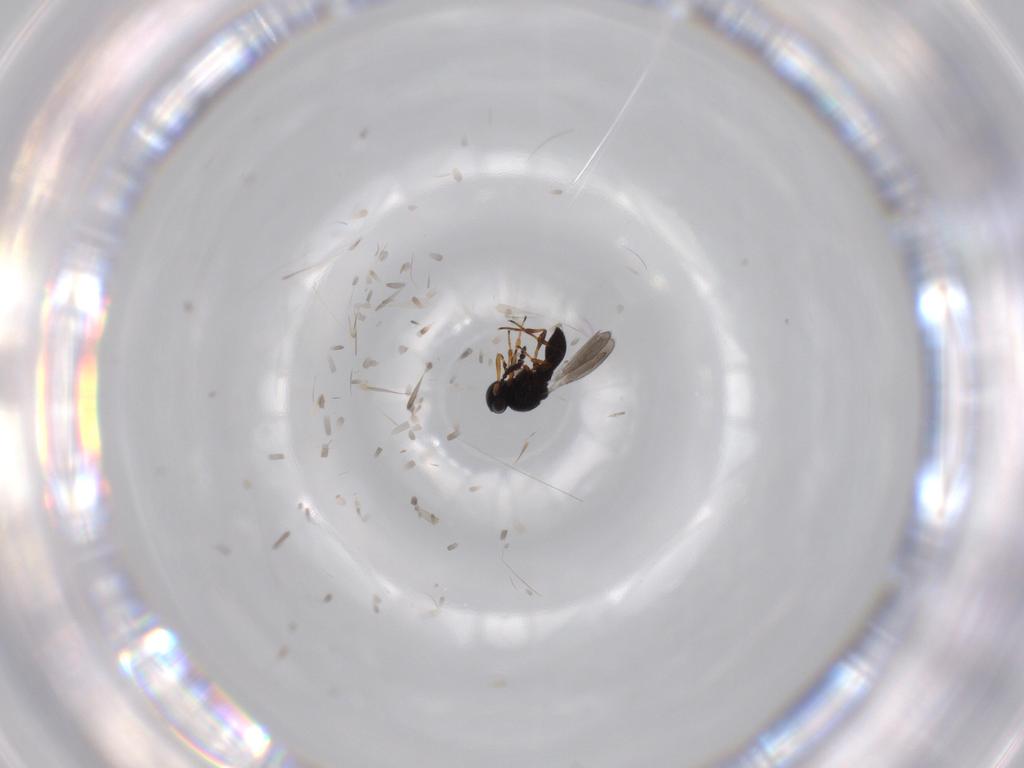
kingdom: Animalia
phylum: Arthropoda
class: Insecta
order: Hymenoptera
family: Platygastridae
